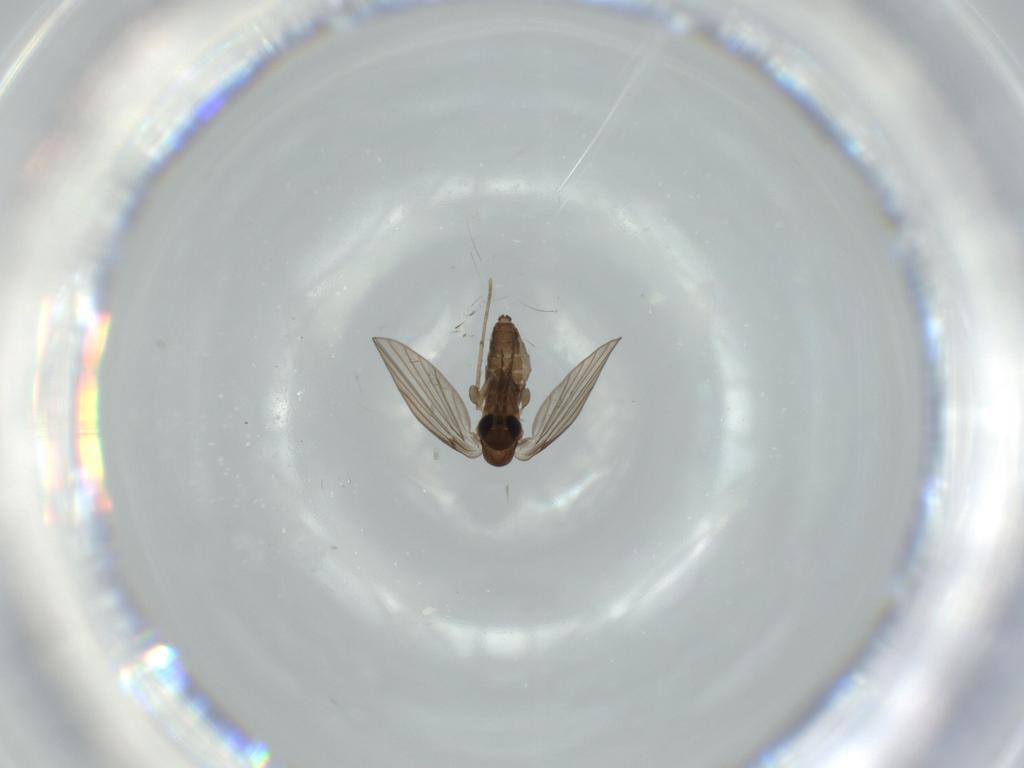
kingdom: Animalia
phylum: Arthropoda
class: Insecta
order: Diptera
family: Psychodidae
